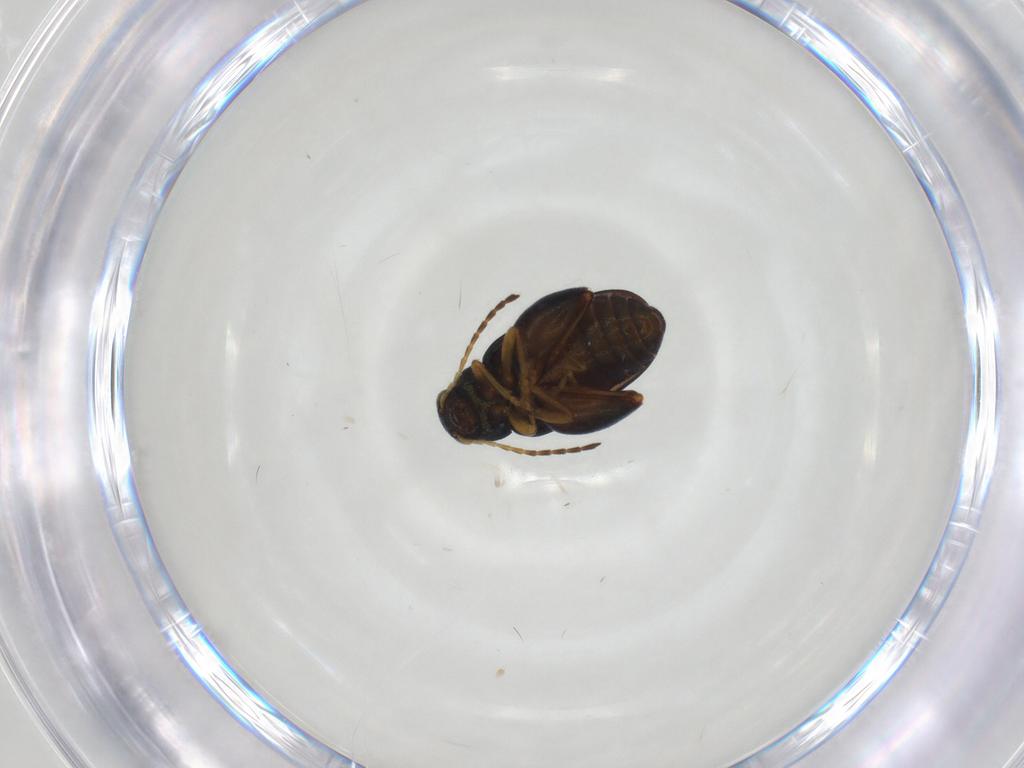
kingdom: Animalia
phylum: Arthropoda
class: Insecta
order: Coleoptera
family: Chrysomelidae
